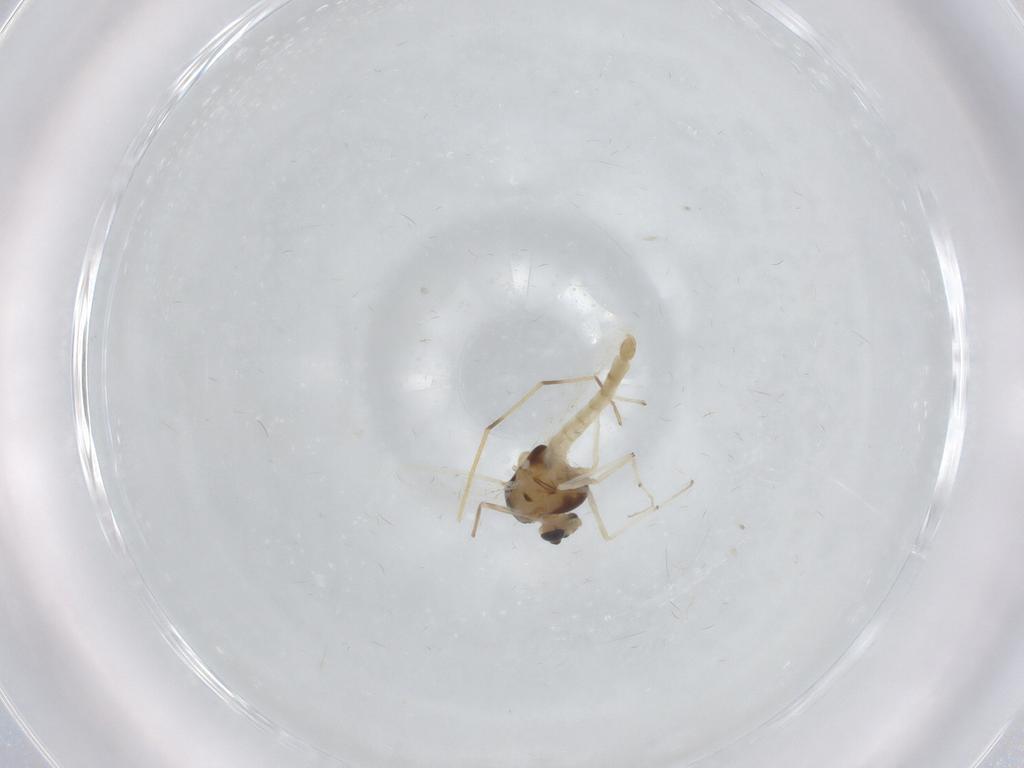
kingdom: Animalia
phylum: Arthropoda
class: Insecta
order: Diptera
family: Chironomidae
